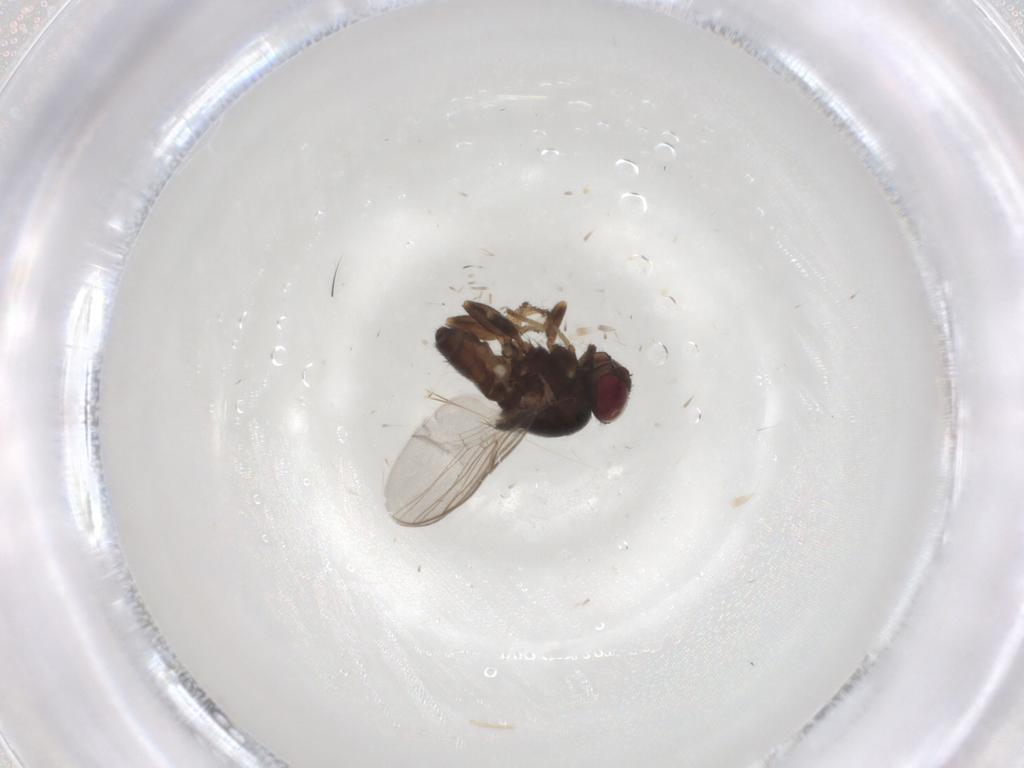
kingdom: Animalia
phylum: Arthropoda
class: Insecta
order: Diptera
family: Chloropidae
